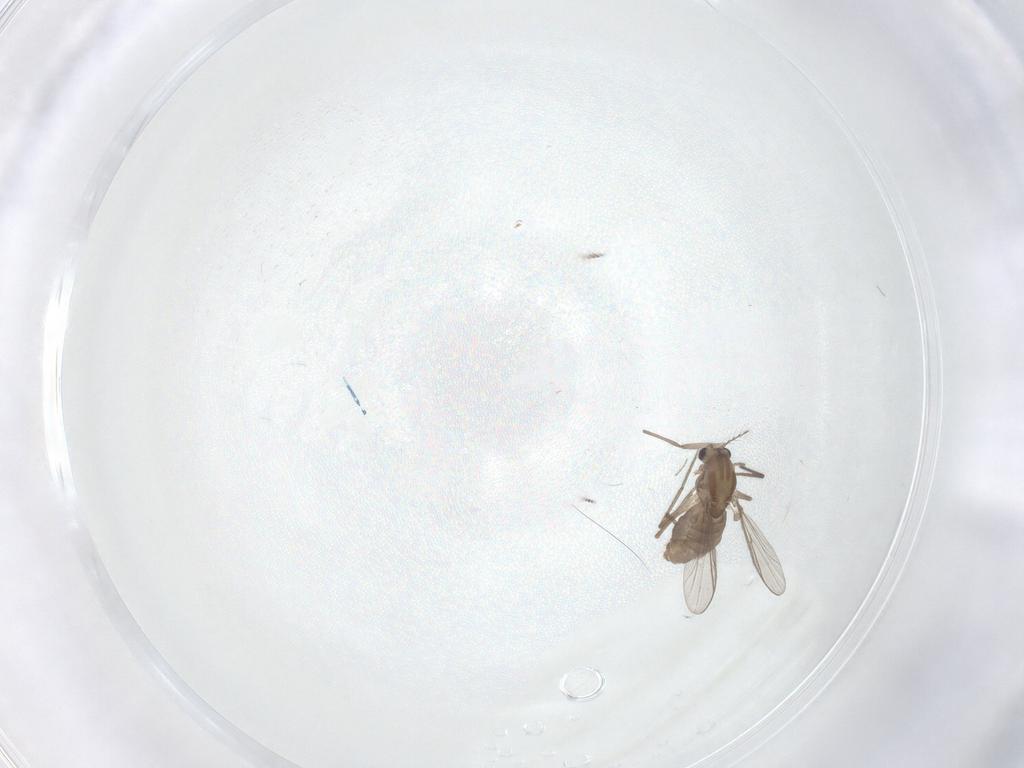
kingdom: Animalia
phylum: Arthropoda
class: Insecta
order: Diptera
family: Chironomidae
